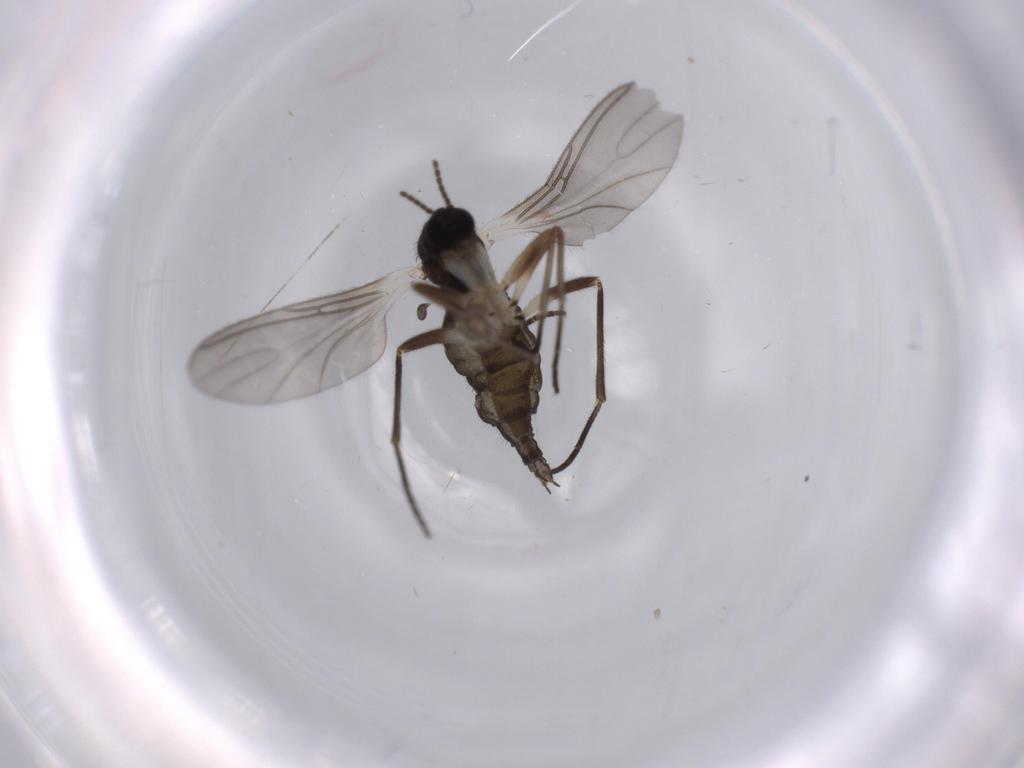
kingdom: Animalia
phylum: Arthropoda
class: Insecta
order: Diptera
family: Sciaridae
